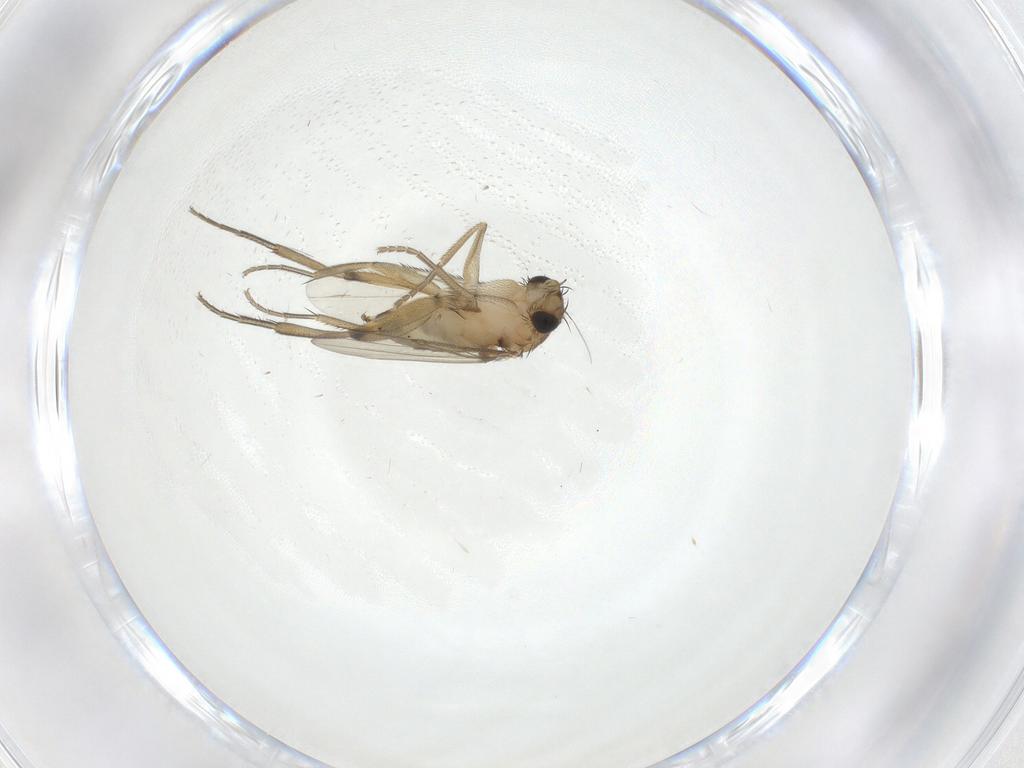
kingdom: Animalia
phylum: Arthropoda
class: Insecta
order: Diptera
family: Phoridae
